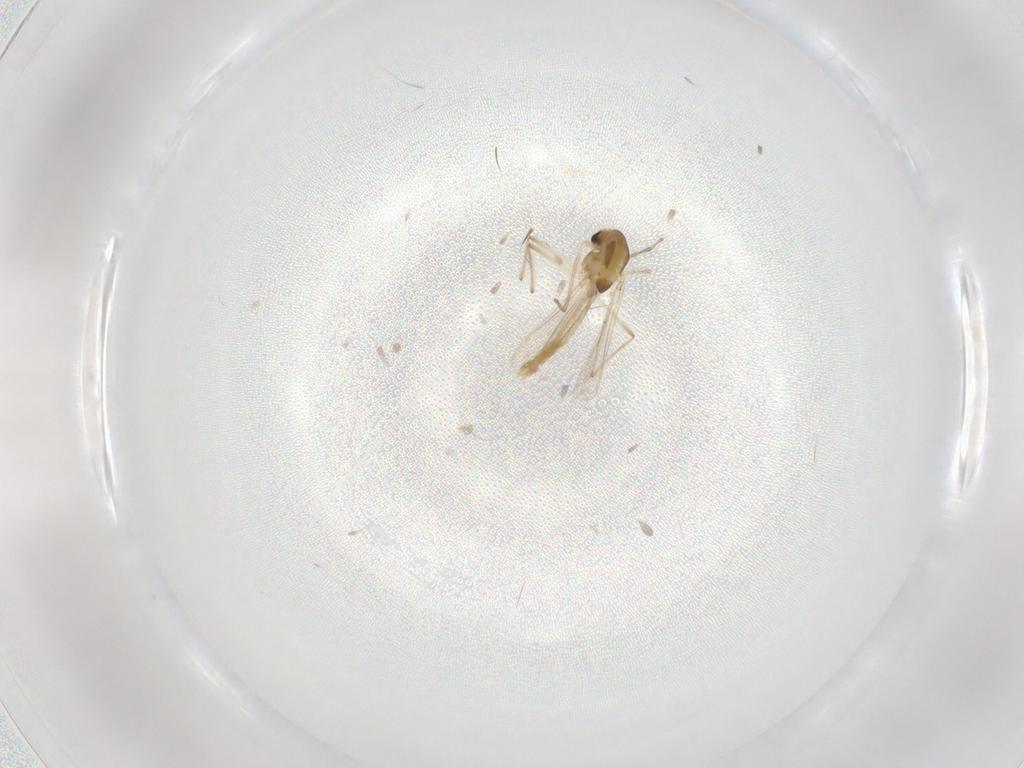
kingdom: Animalia
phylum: Arthropoda
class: Insecta
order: Diptera
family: Chironomidae
